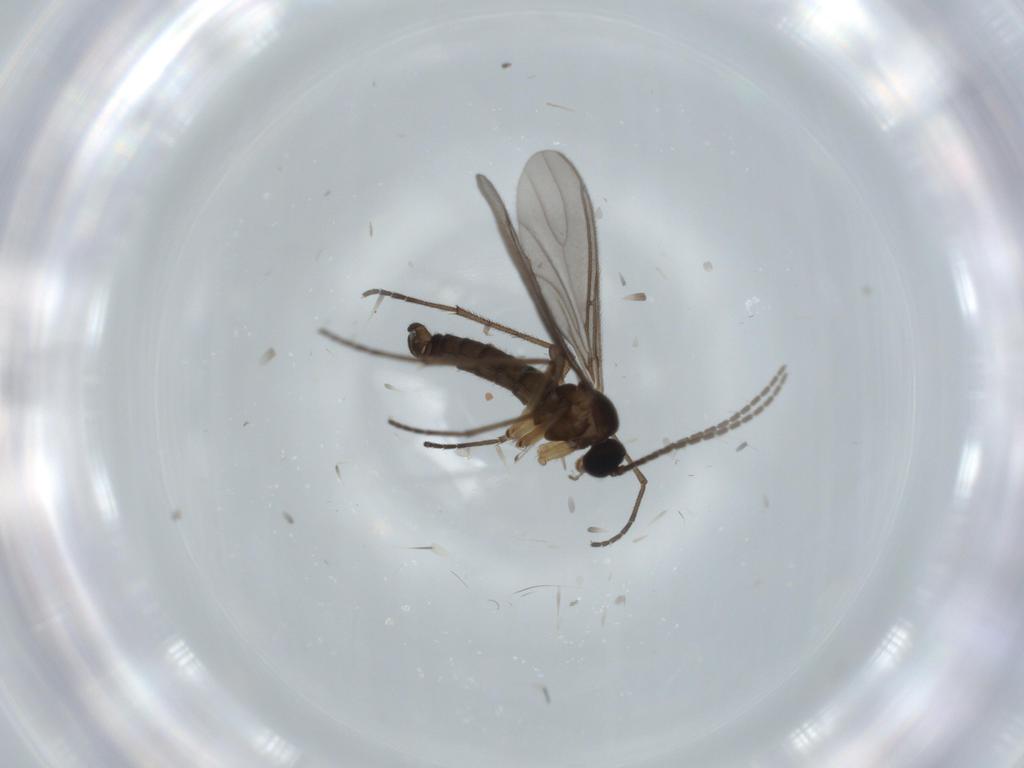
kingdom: Animalia
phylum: Arthropoda
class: Insecta
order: Diptera
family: Sciaridae
